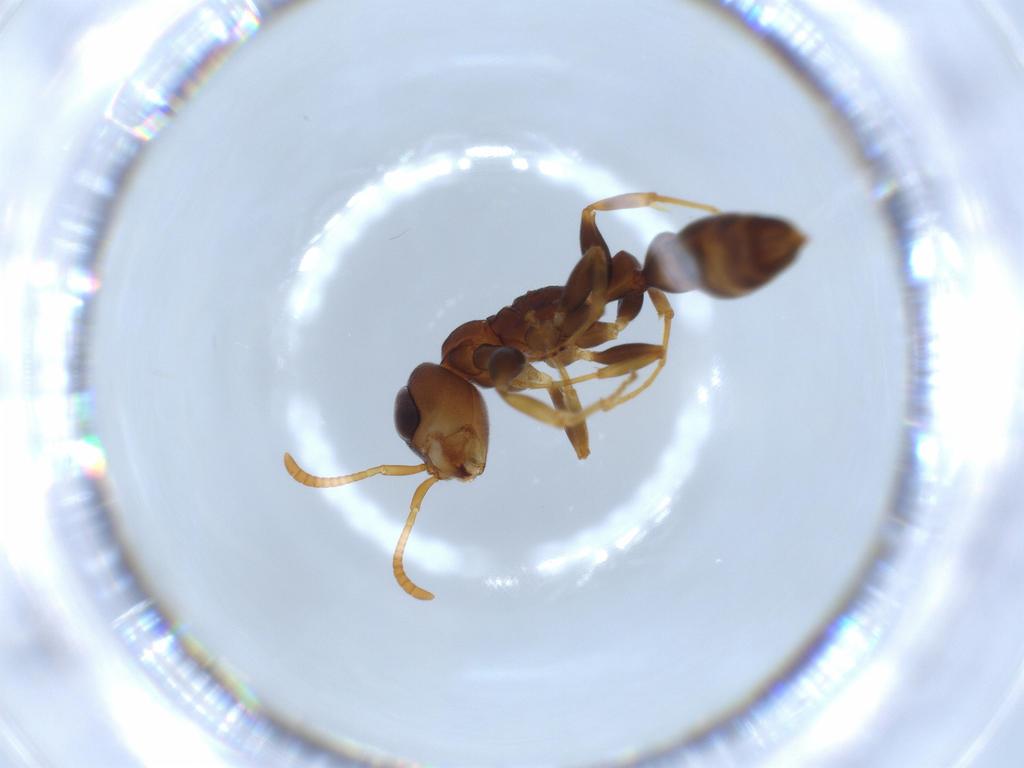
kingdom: Animalia
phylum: Arthropoda
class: Insecta
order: Hymenoptera
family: Formicidae
